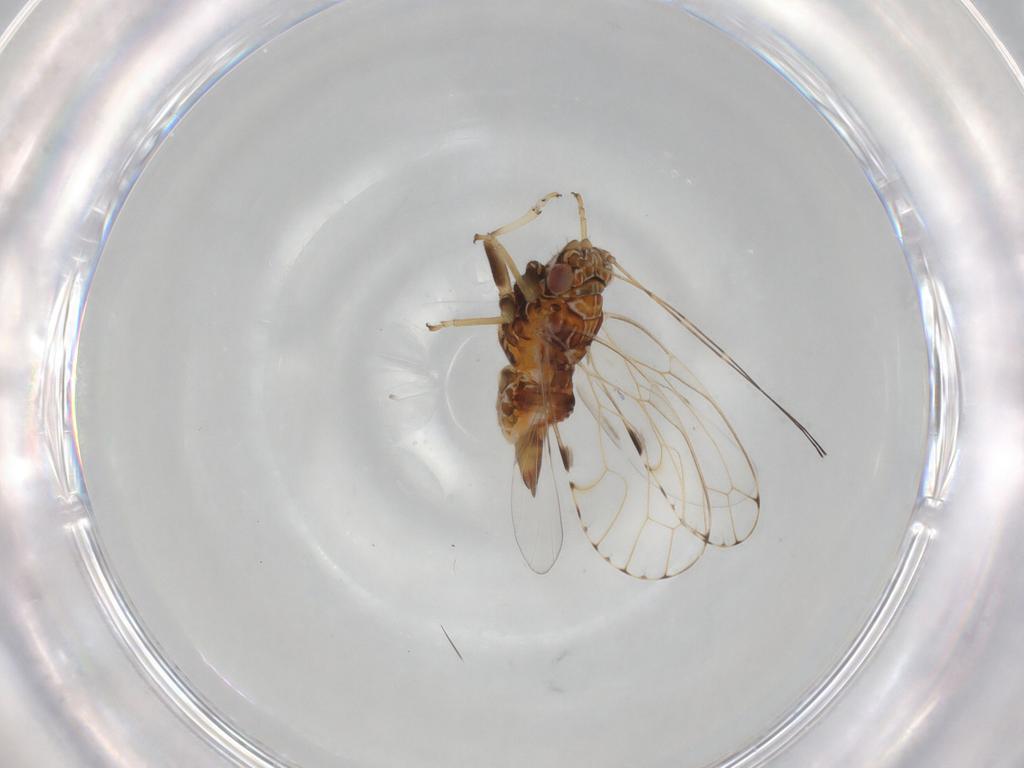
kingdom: Animalia
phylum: Arthropoda
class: Insecta
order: Hemiptera
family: Psylloidea_incertae_sedis
